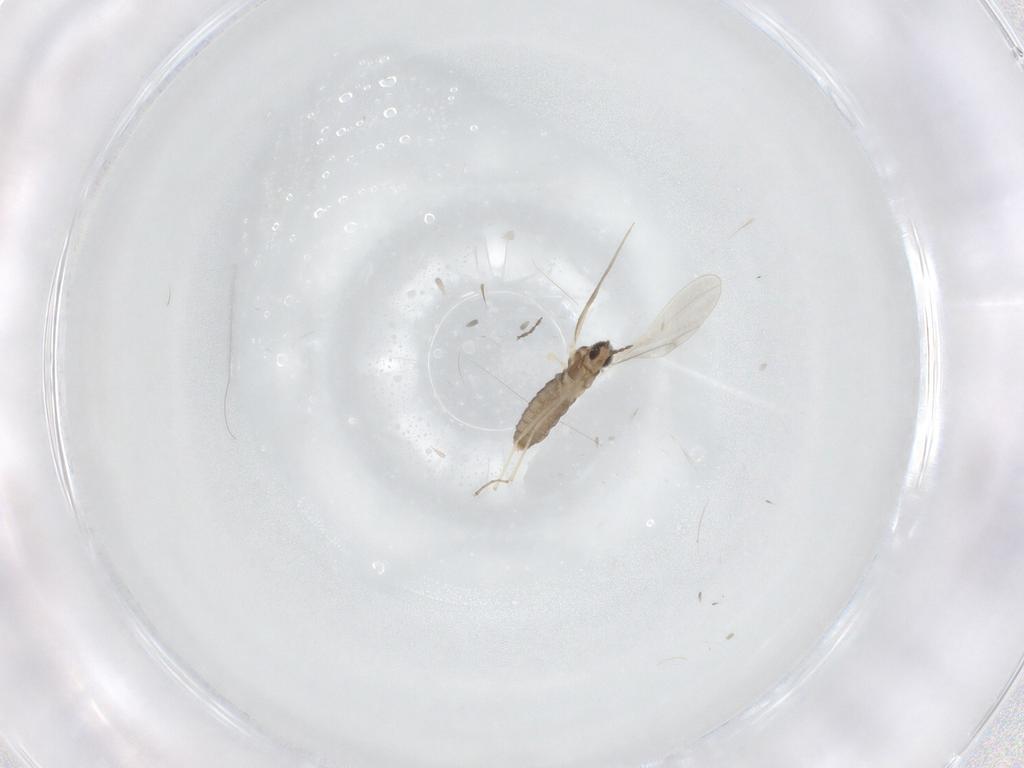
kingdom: Animalia
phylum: Arthropoda
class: Insecta
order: Diptera
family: Cecidomyiidae
